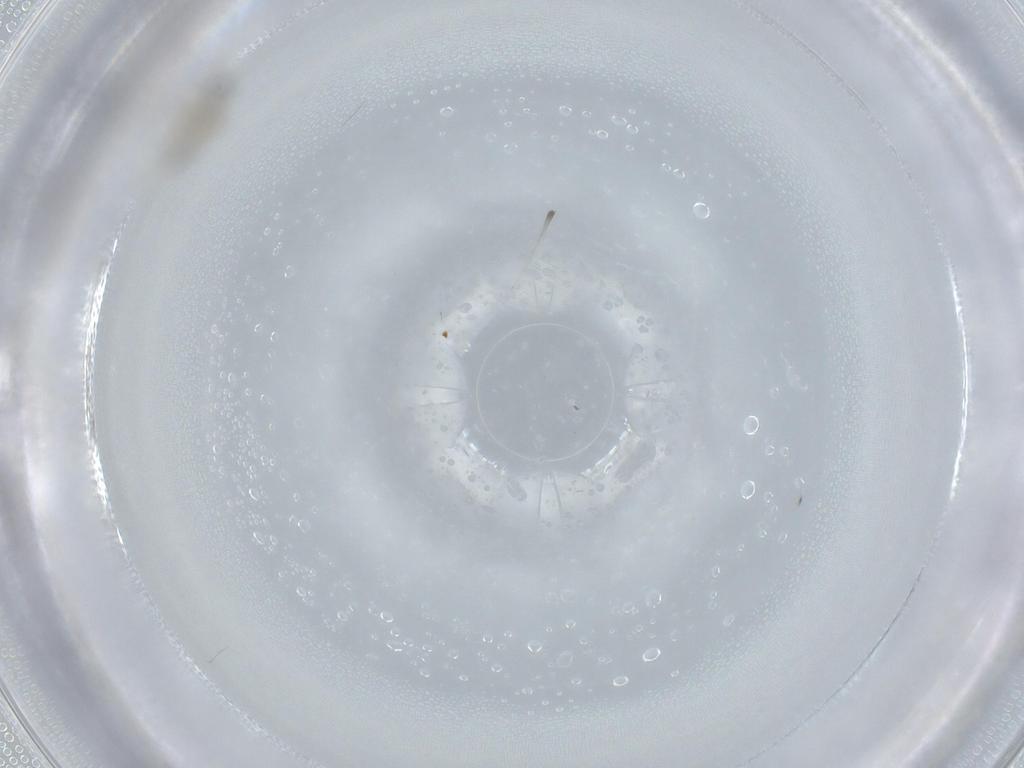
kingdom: Animalia
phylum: Arthropoda
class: Insecta
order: Diptera
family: Cecidomyiidae
